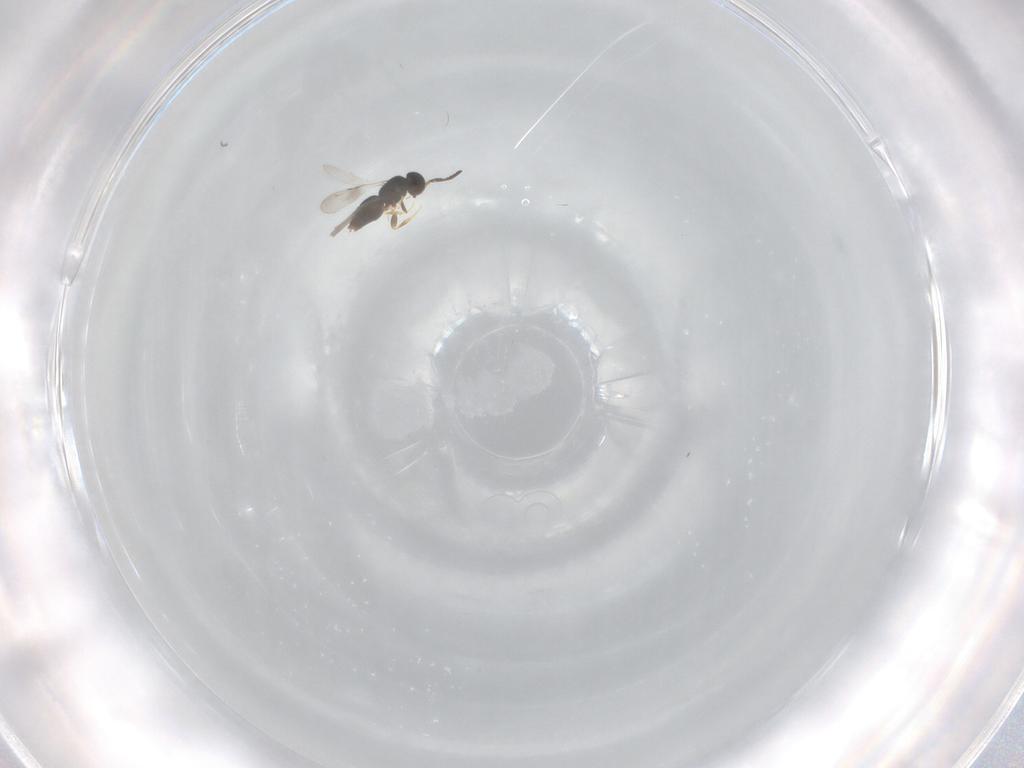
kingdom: Animalia
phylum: Arthropoda
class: Insecta
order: Hymenoptera
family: Ceraphronidae
